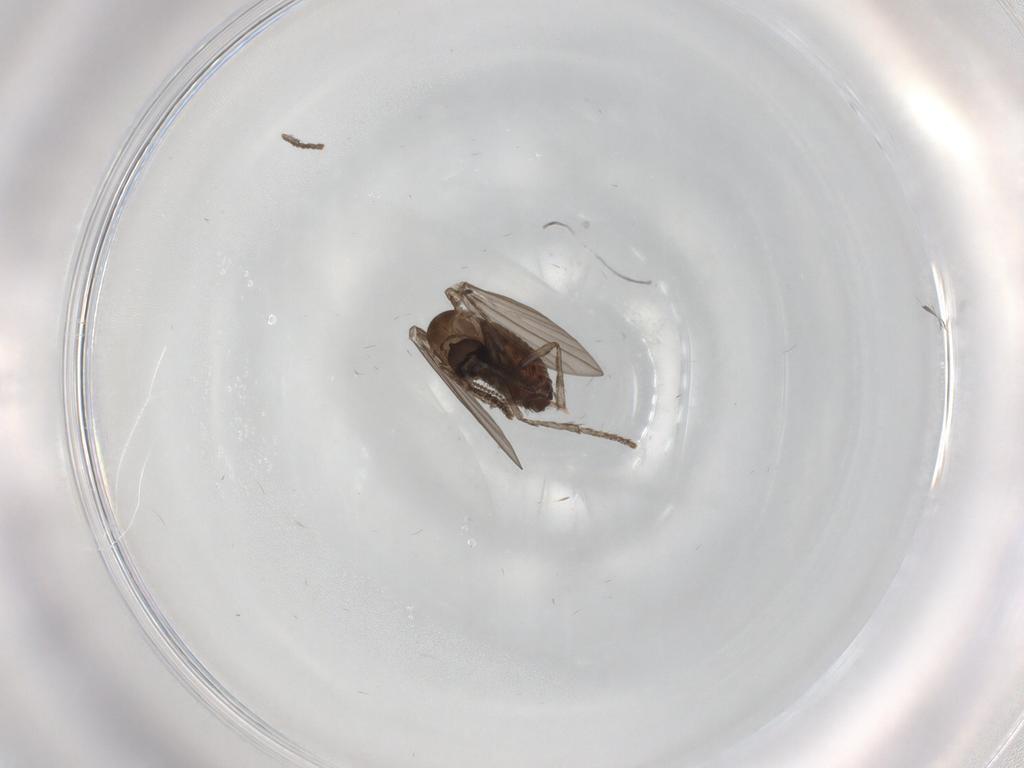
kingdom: Animalia
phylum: Arthropoda
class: Insecta
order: Diptera
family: Psychodidae
